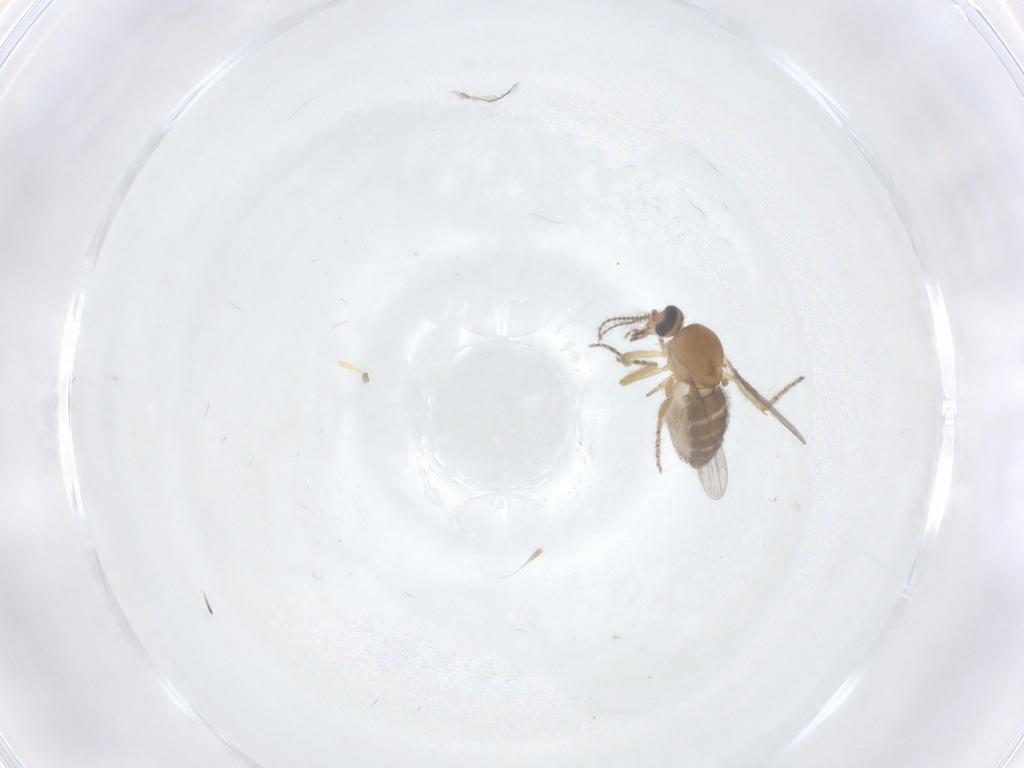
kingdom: Animalia
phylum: Arthropoda
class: Insecta
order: Diptera
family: Ceratopogonidae
